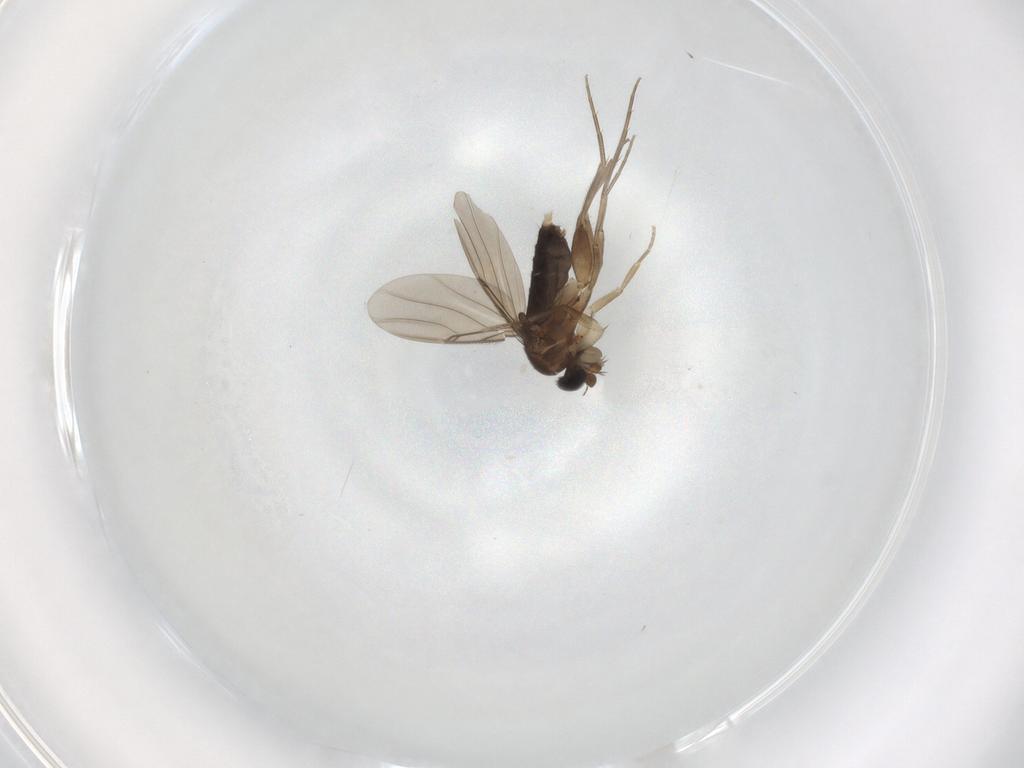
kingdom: Animalia
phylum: Arthropoda
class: Insecta
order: Diptera
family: Phoridae
